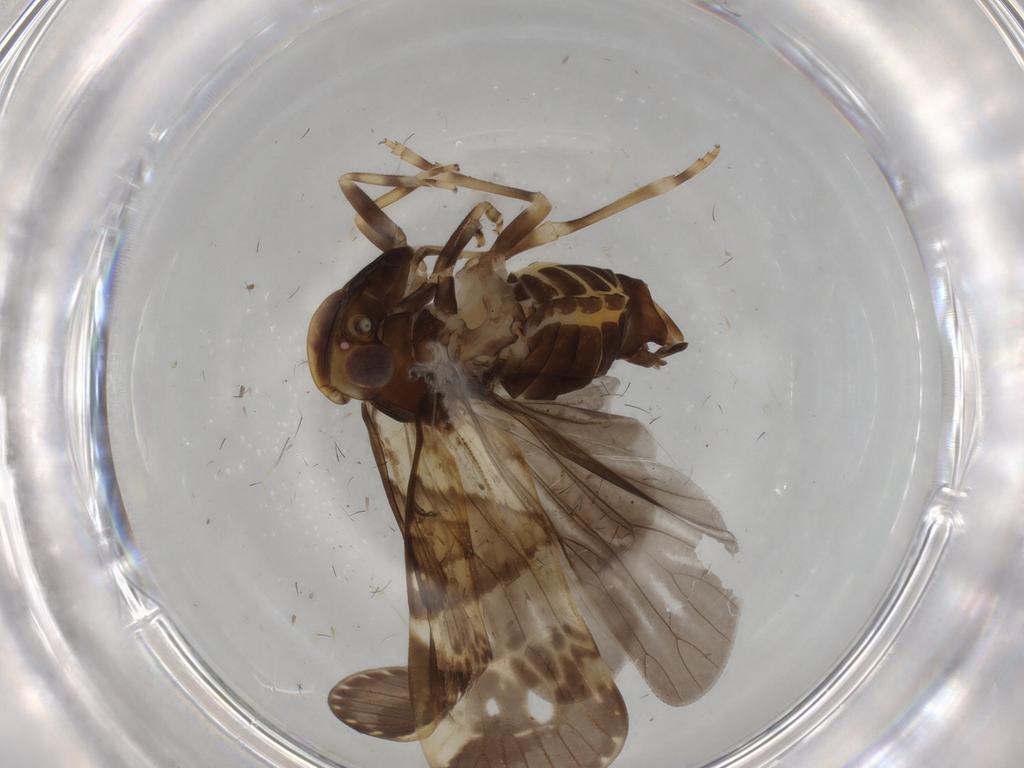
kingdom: Animalia
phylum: Arthropoda
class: Insecta
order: Hemiptera
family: Cixiidae
